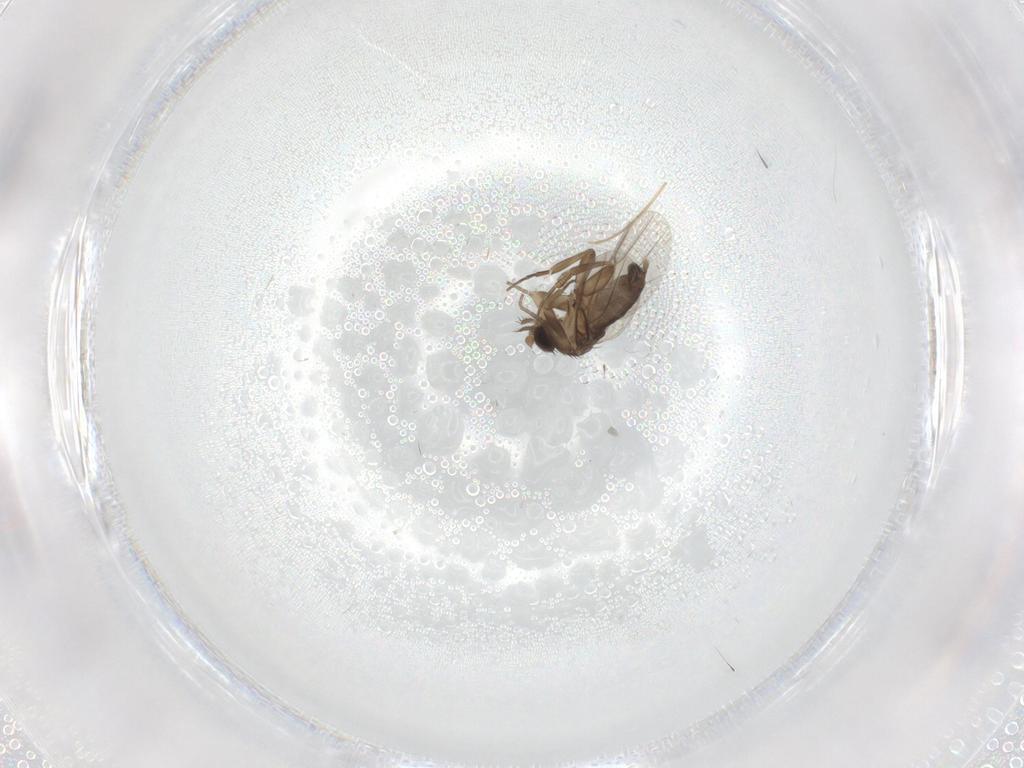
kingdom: Animalia
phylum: Arthropoda
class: Insecta
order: Diptera
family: Ceratopogonidae
